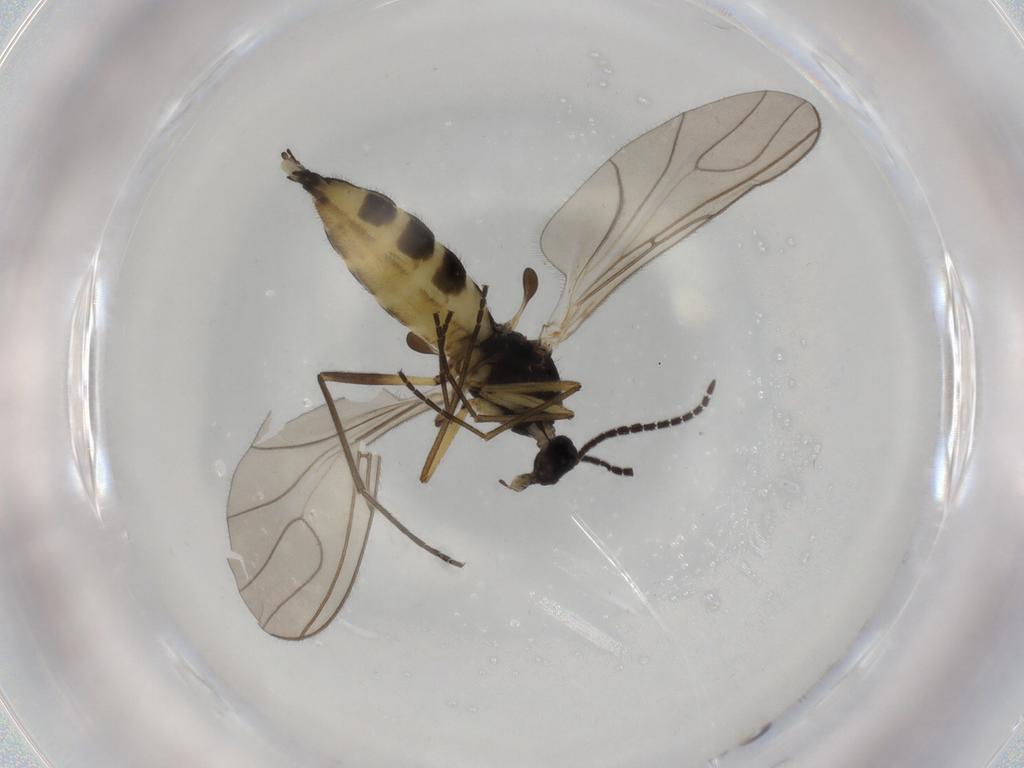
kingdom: Animalia
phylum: Arthropoda
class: Insecta
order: Diptera
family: Sciaridae
